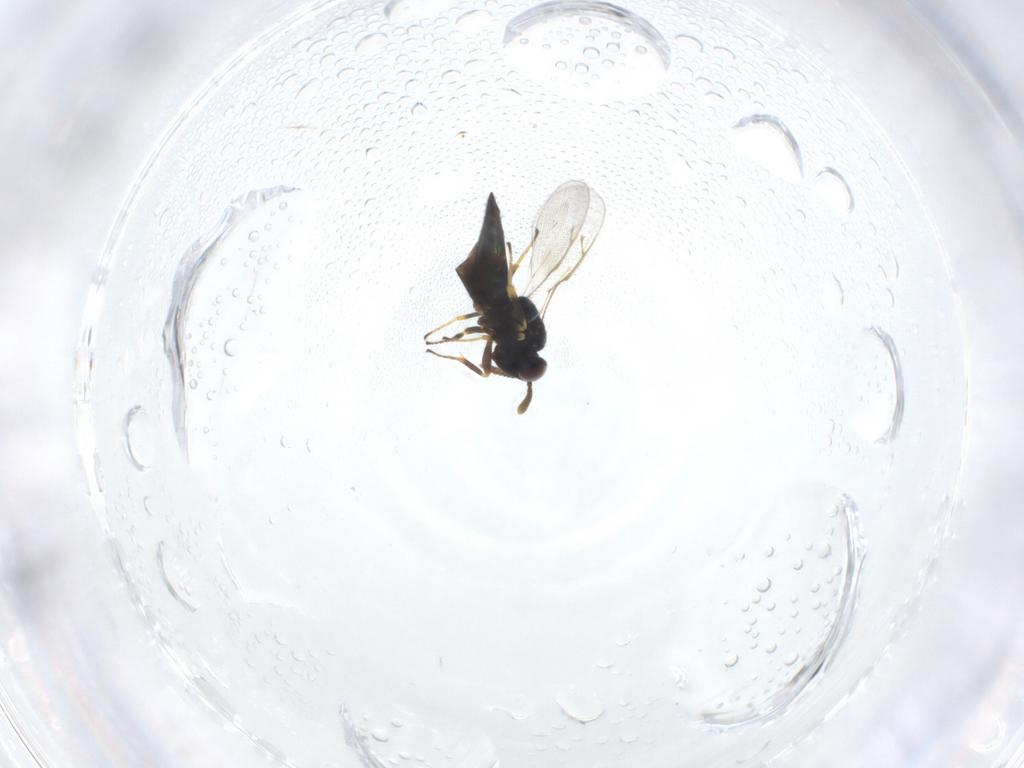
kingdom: Animalia
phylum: Arthropoda
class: Insecta
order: Hymenoptera
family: Pteromalidae
